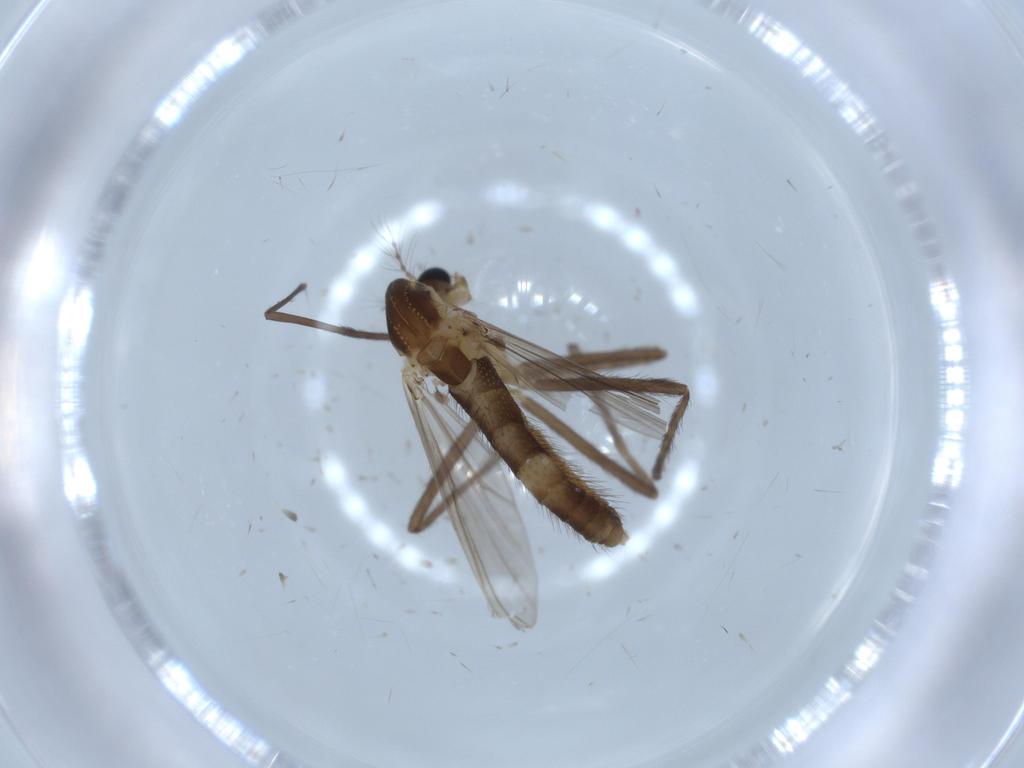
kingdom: Animalia
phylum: Arthropoda
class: Insecta
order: Diptera
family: Chironomidae
